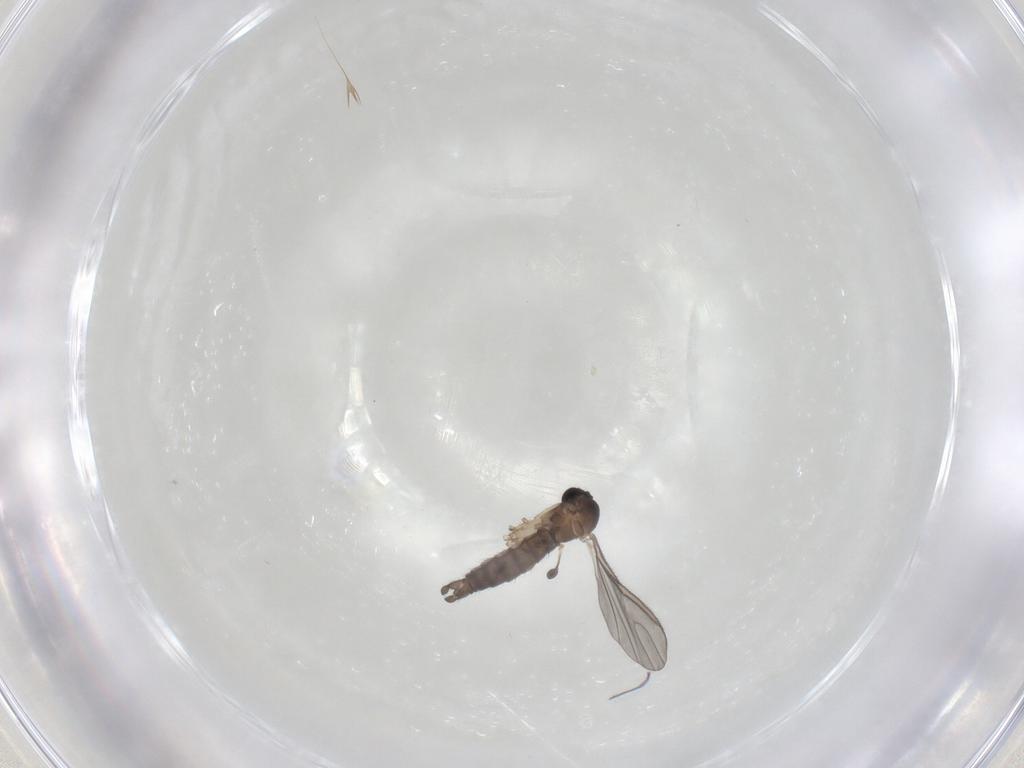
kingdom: Animalia
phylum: Arthropoda
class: Insecta
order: Diptera
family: Sciaridae
